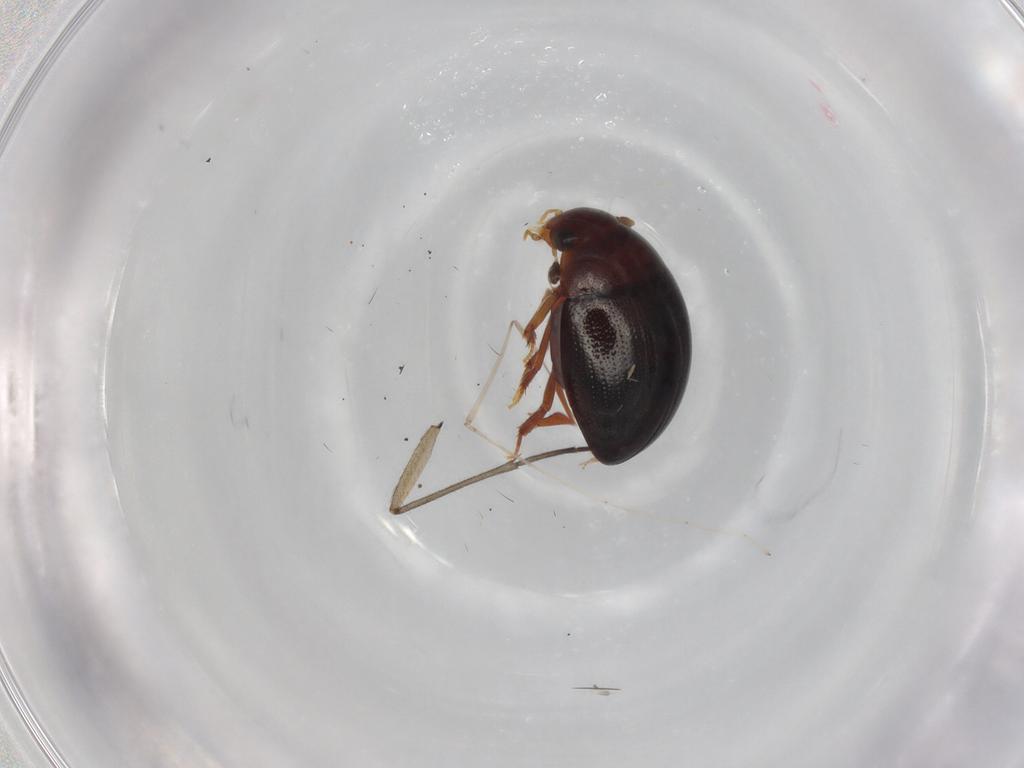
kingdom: Animalia
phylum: Arthropoda
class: Insecta
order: Coleoptera
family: Hydrophilidae
